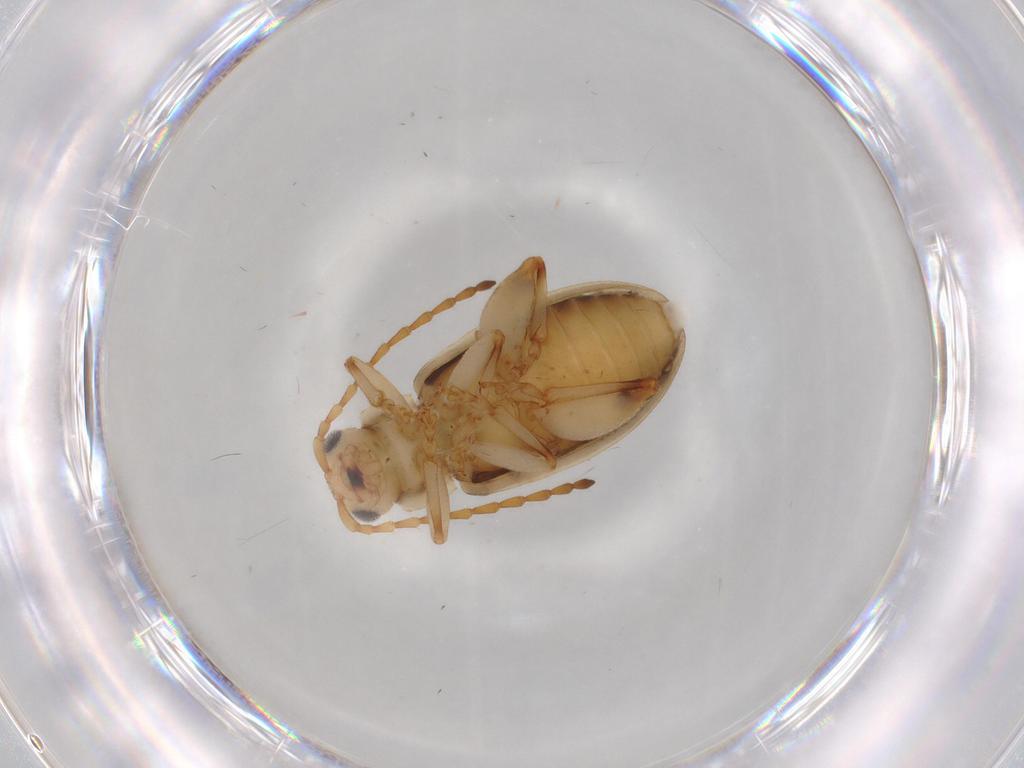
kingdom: Animalia
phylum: Arthropoda
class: Insecta
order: Coleoptera
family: Chrysomelidae
